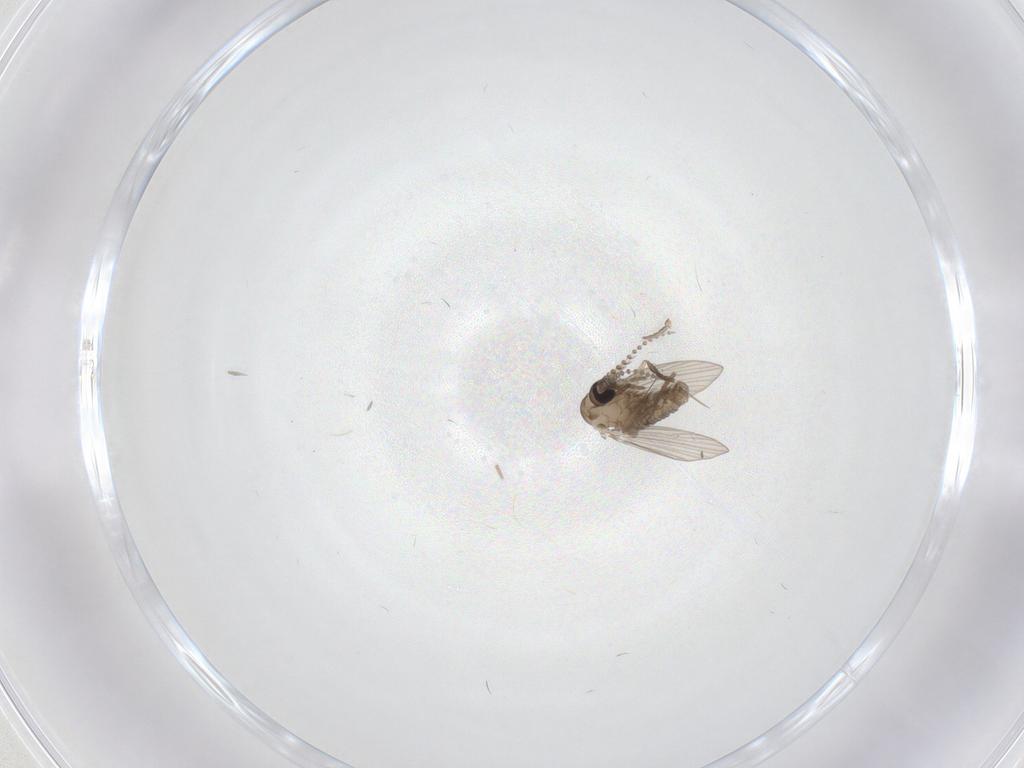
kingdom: Animalia
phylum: Arthropoda
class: Insecta
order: Diptera
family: Psychodidae
